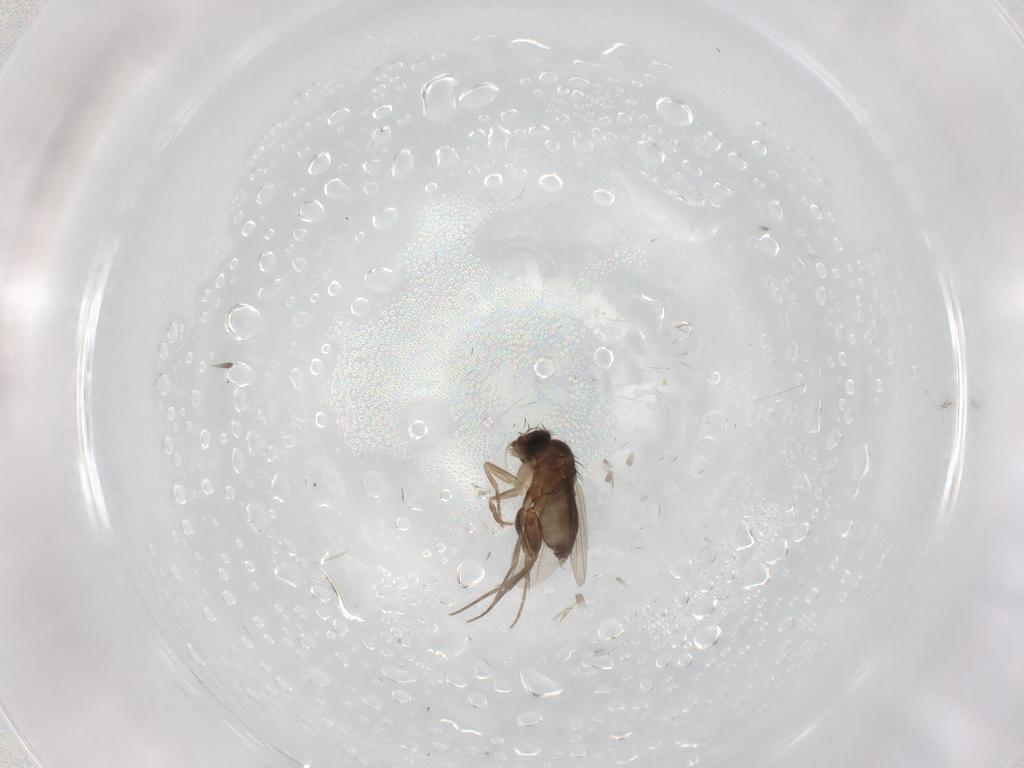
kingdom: Animalia
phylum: Arthropoda
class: Insecta
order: Diptera
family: Phoridae
